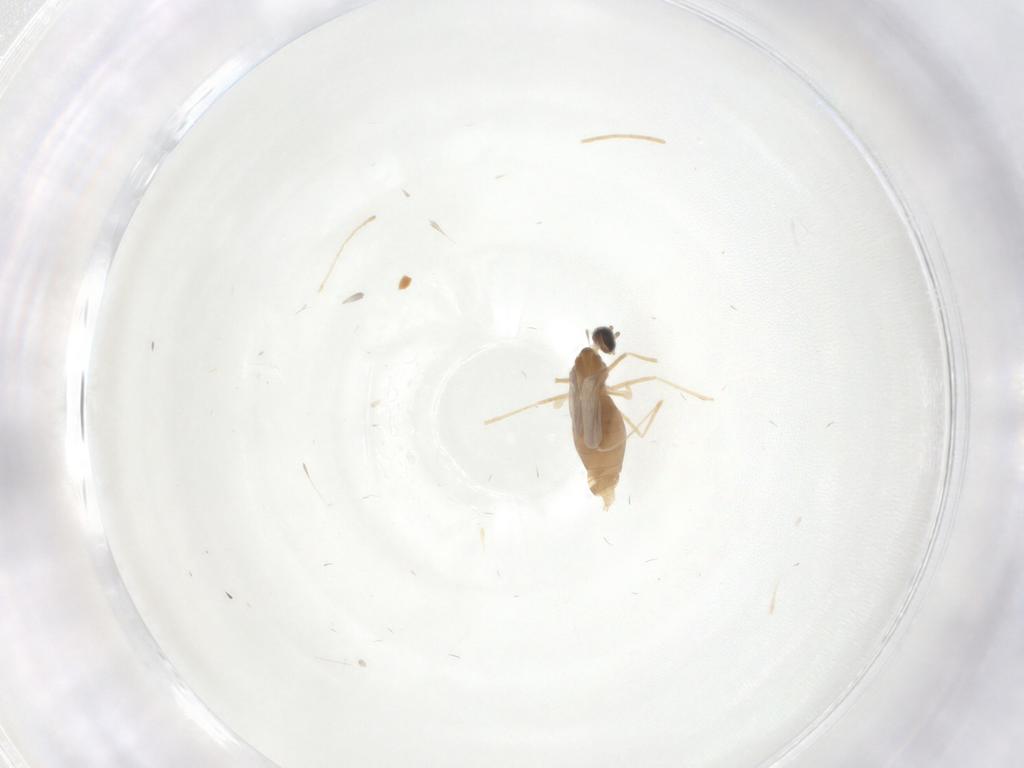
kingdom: Animalia
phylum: Arthropoda
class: Insecta
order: Diptera
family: Cecidomyiidae
